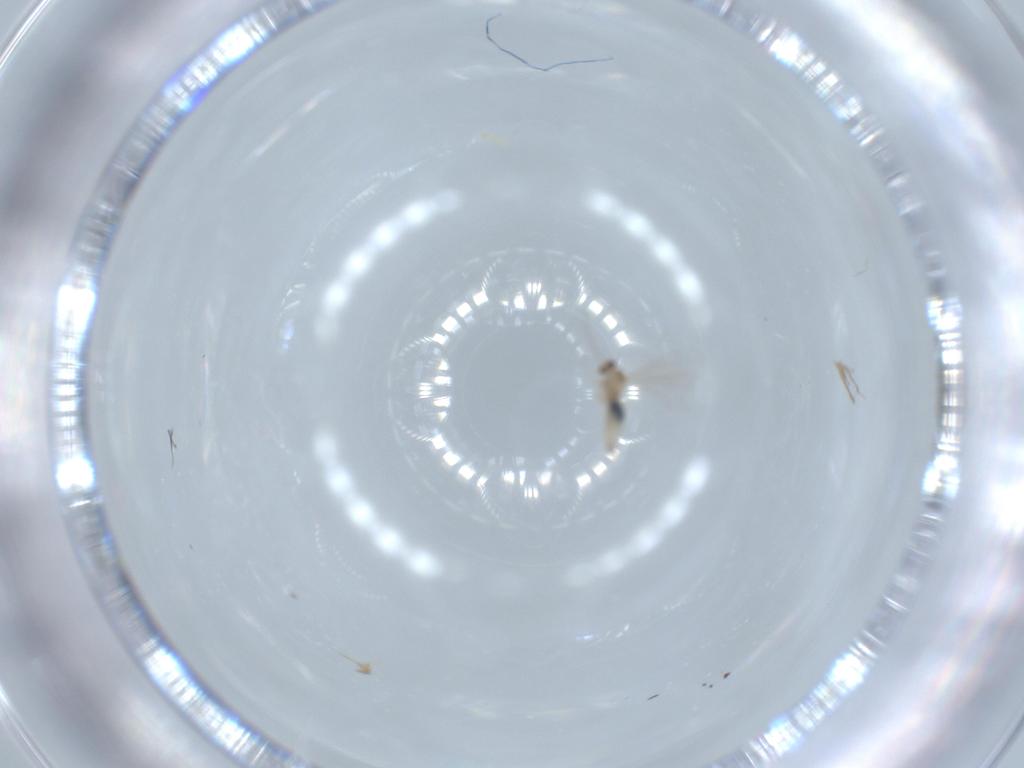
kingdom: Animalia
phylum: Arthropoda
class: Insecta
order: Diptera
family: Cecidomyiidae
